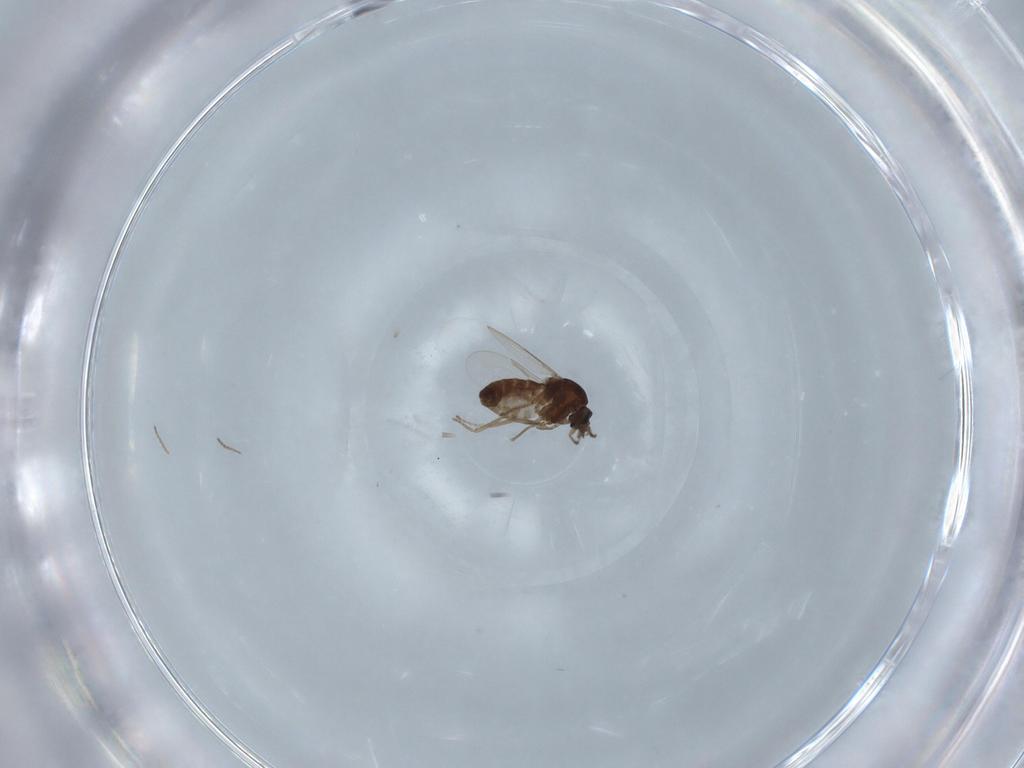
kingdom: Animalia
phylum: Arthropoda
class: Insecta
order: Diptera
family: Ceratopogonidae
